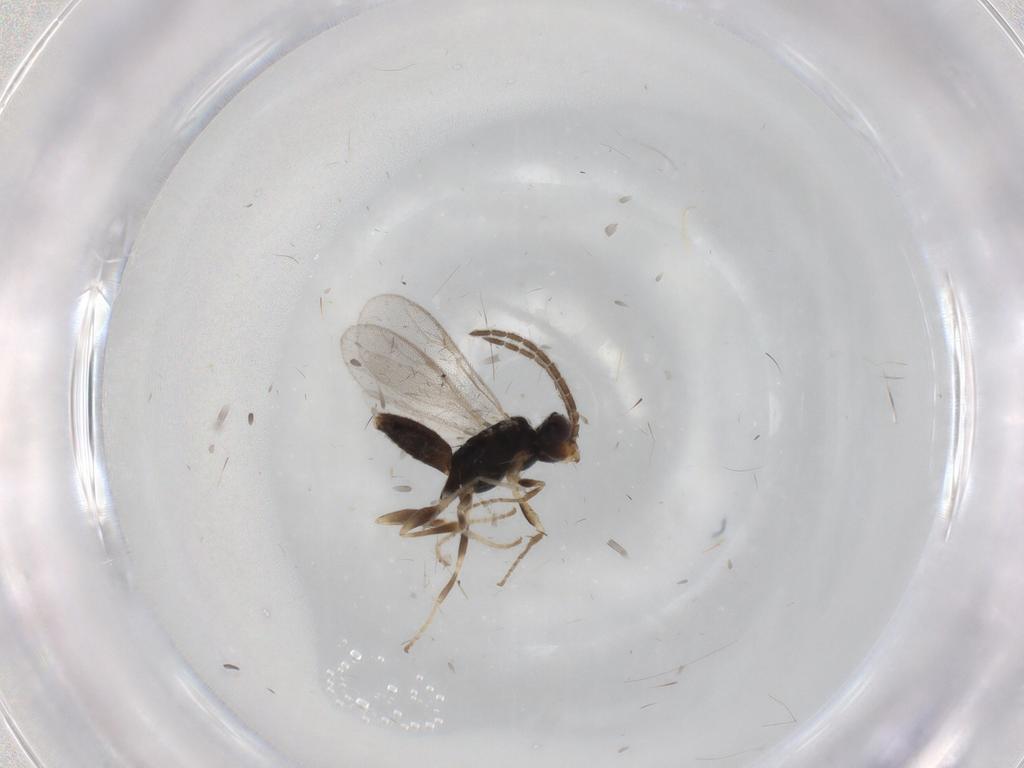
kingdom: Animalia
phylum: Arthropoda
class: Insecta
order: Hymenoptera
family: Dryinidae
